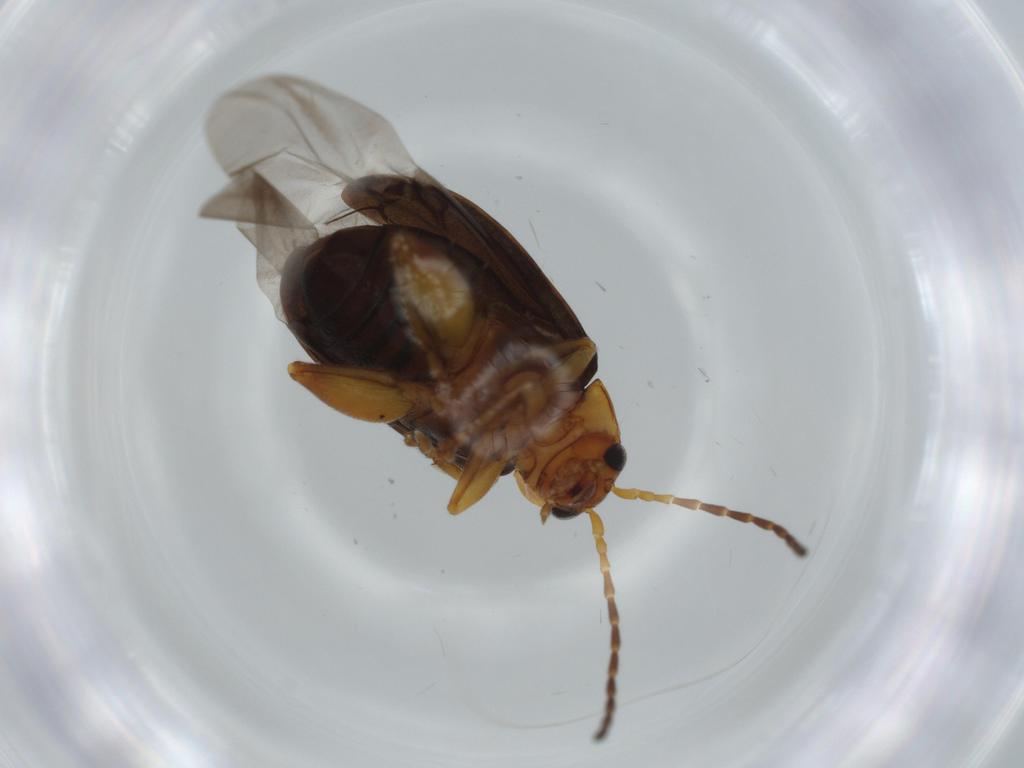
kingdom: Animalia
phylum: Arthropoda
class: Insecta
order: Coleoptera
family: Chrysomelidae
